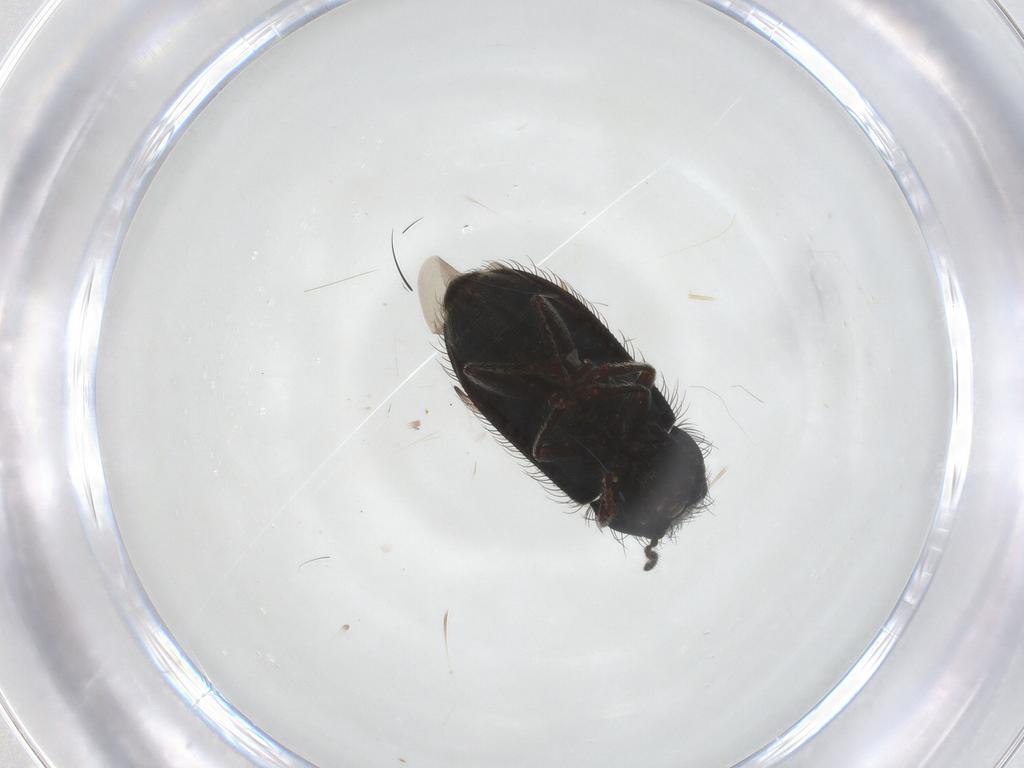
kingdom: Animalia
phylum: Arthropoda
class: Insecta
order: Coleoptera
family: Melyridae
